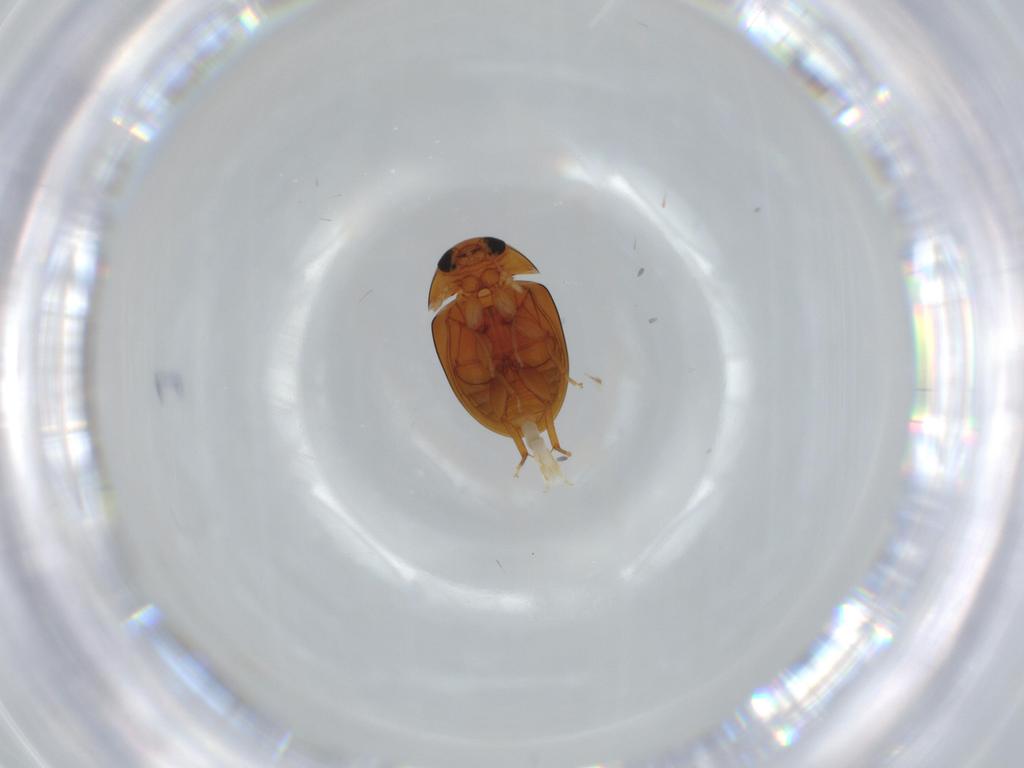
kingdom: Animalia
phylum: Arthropoda
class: Insecta
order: Coleoptera
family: Phalacridae
